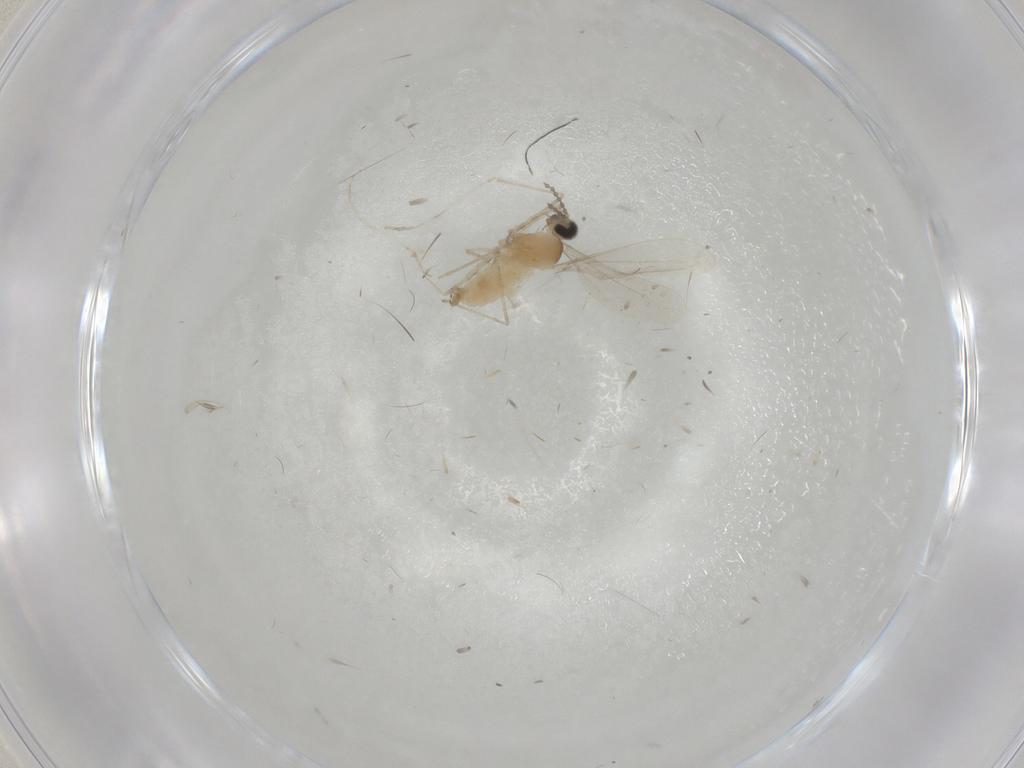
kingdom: Animalia
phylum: Arthropoda
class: Insecta
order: Diptera
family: Cecidomyiidae
